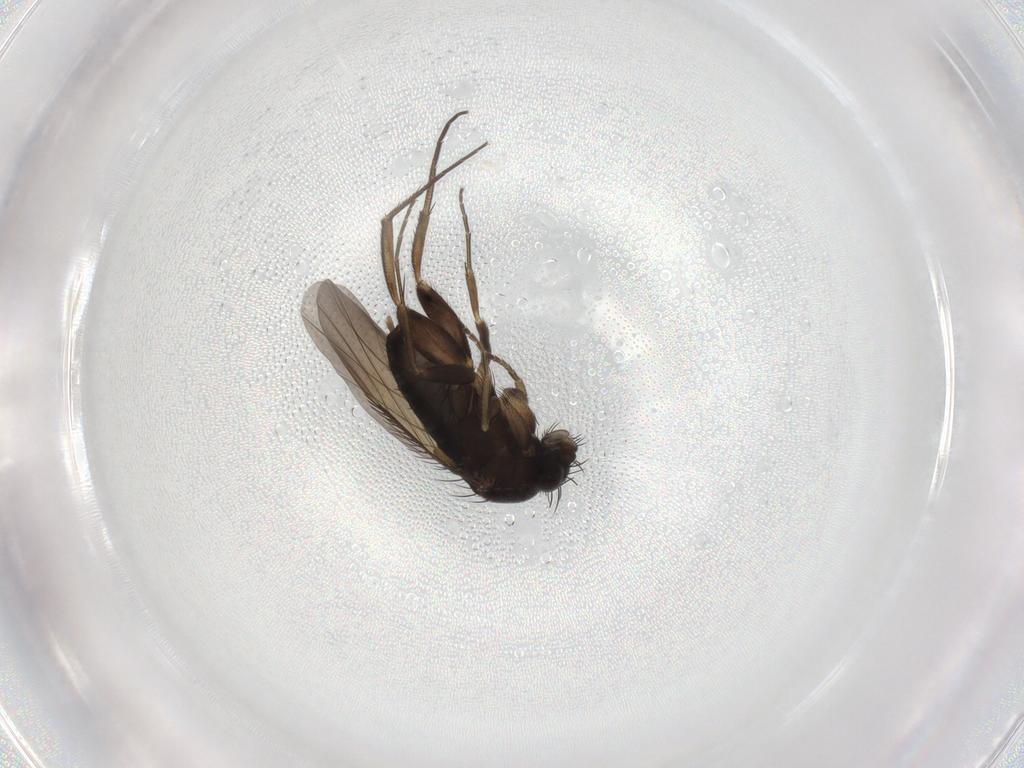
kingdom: Animalia
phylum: Arthropoda
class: Insecta
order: Diptera
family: Phoridae
